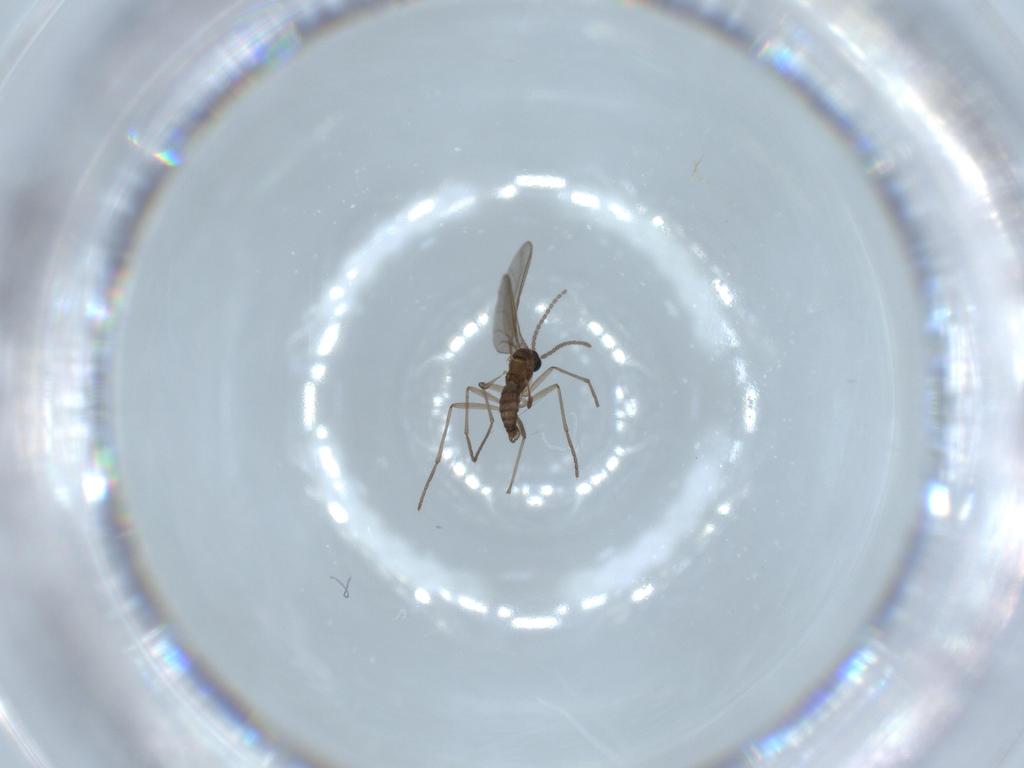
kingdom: Animalia
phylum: Arthropoda
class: Insecta
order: Diptera
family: Sciaridae
